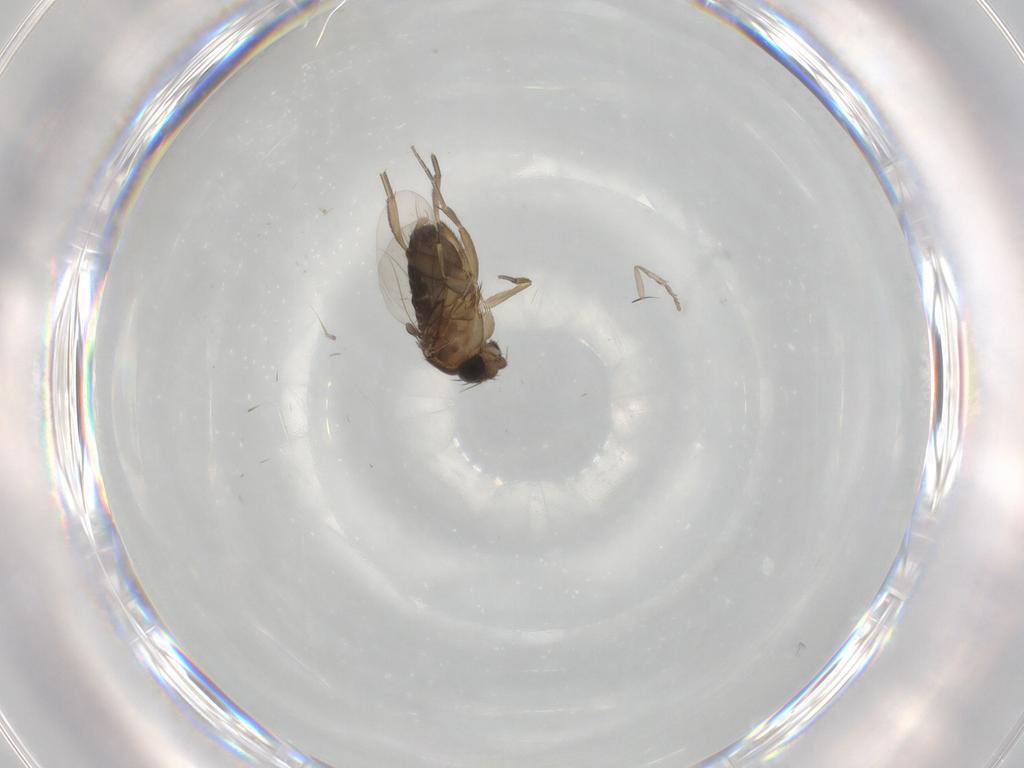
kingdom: Animalia
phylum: Arthropoda
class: Insecta
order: Diptera
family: Phoridae
